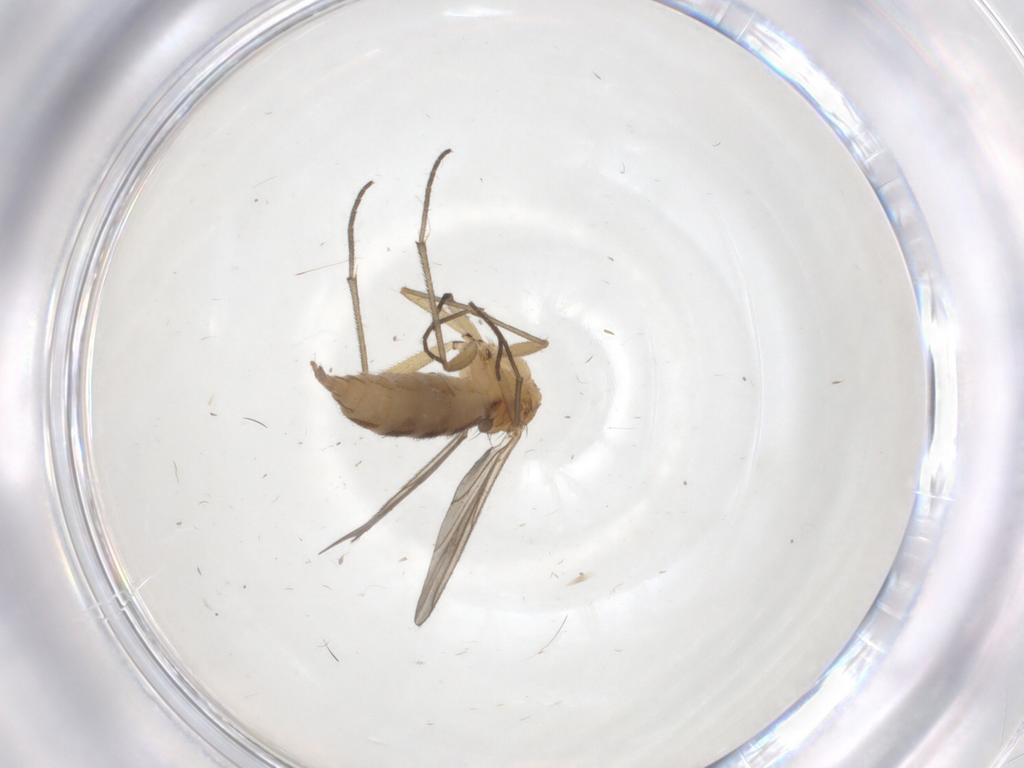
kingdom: Animalia
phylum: Arthropoda
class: Insecta
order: Diptera
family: Sciaridae
